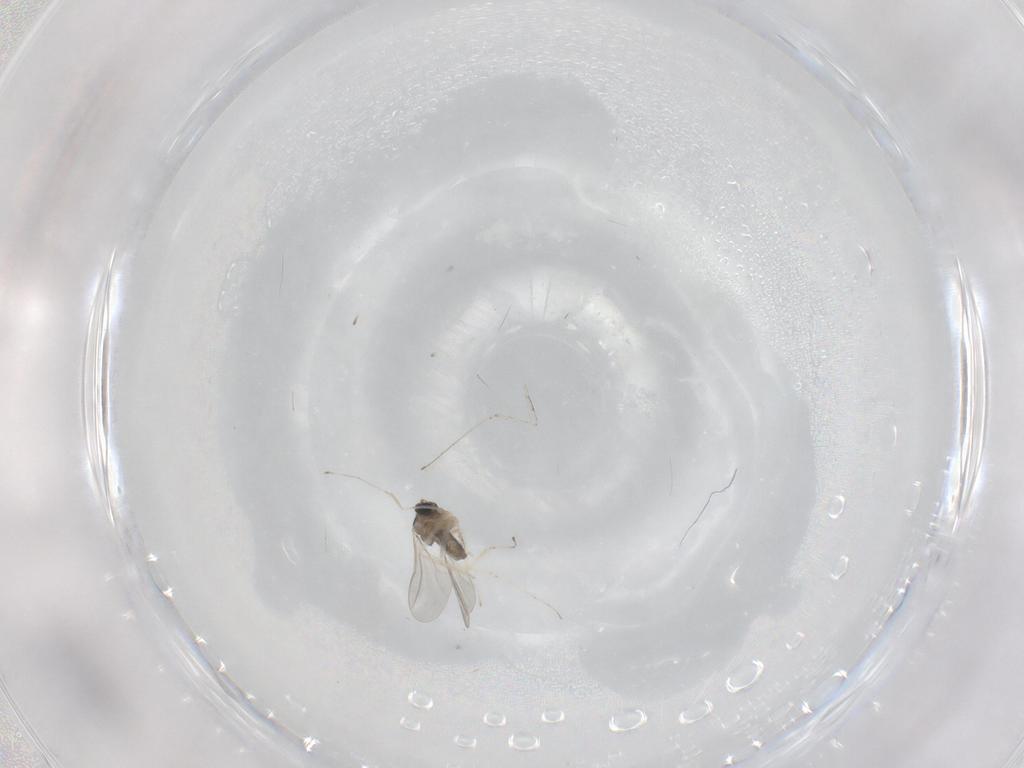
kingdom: Animalia
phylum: Arthropoda
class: Insecta
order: Diptera
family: Cecidomyiidae
